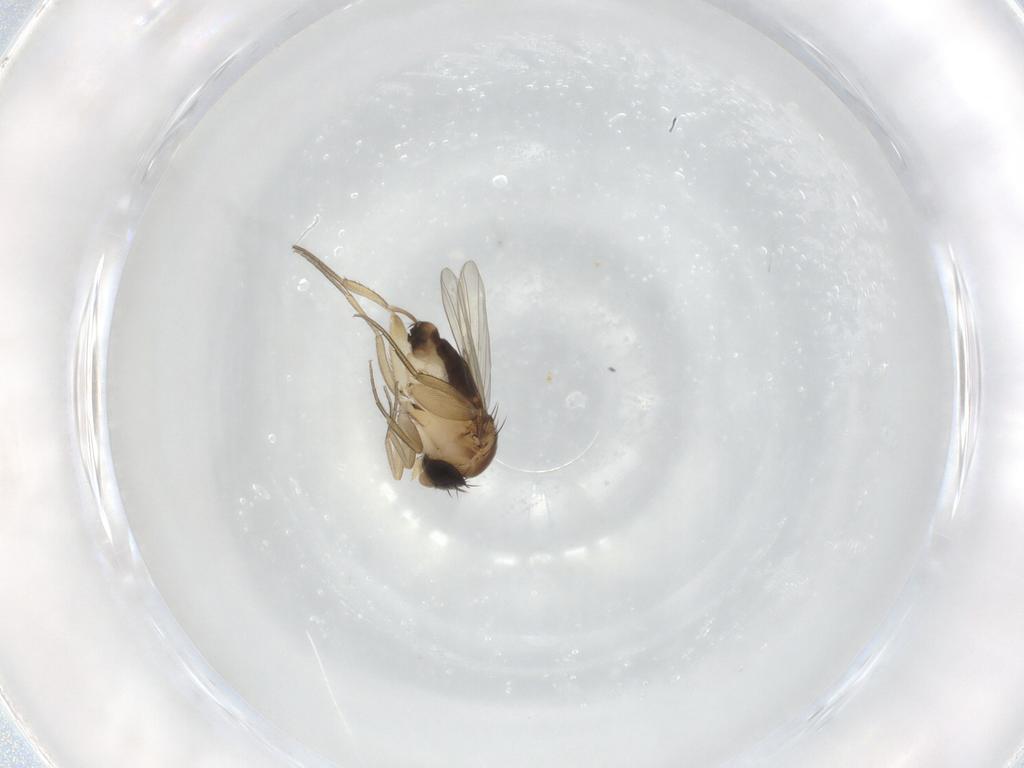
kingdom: Animalia
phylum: Arthropoda
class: Insecta
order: Diptera
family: Phoridae
